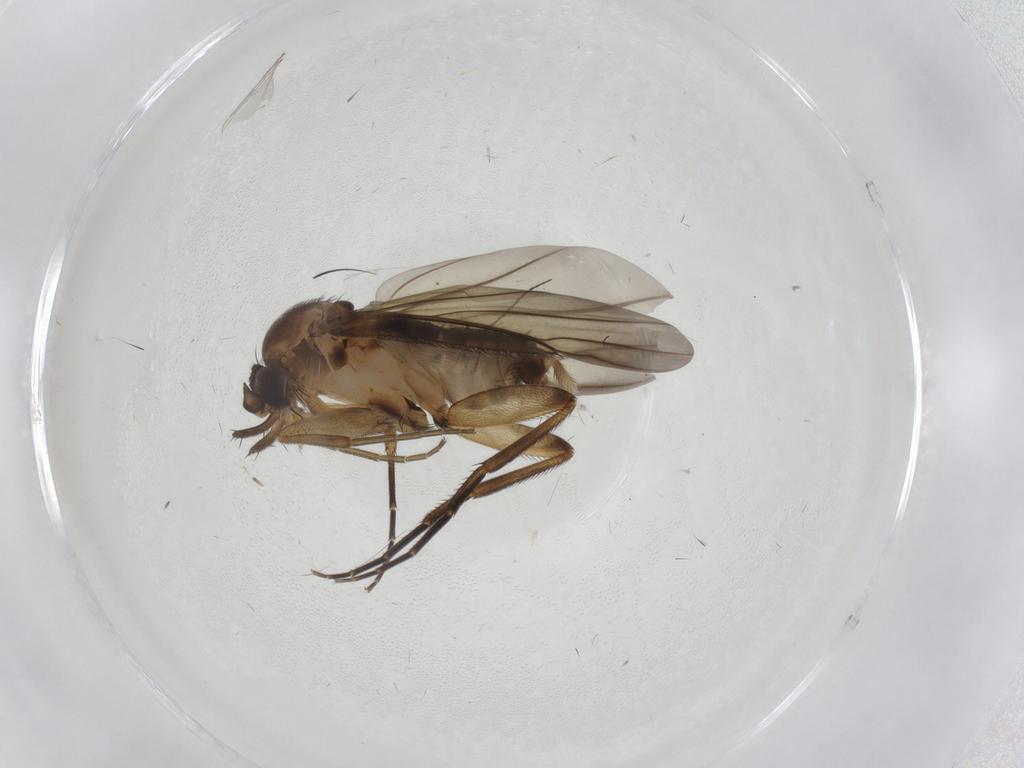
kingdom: Animalia
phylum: Arthropoda
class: Insecta
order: Diptera
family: Phoridae
